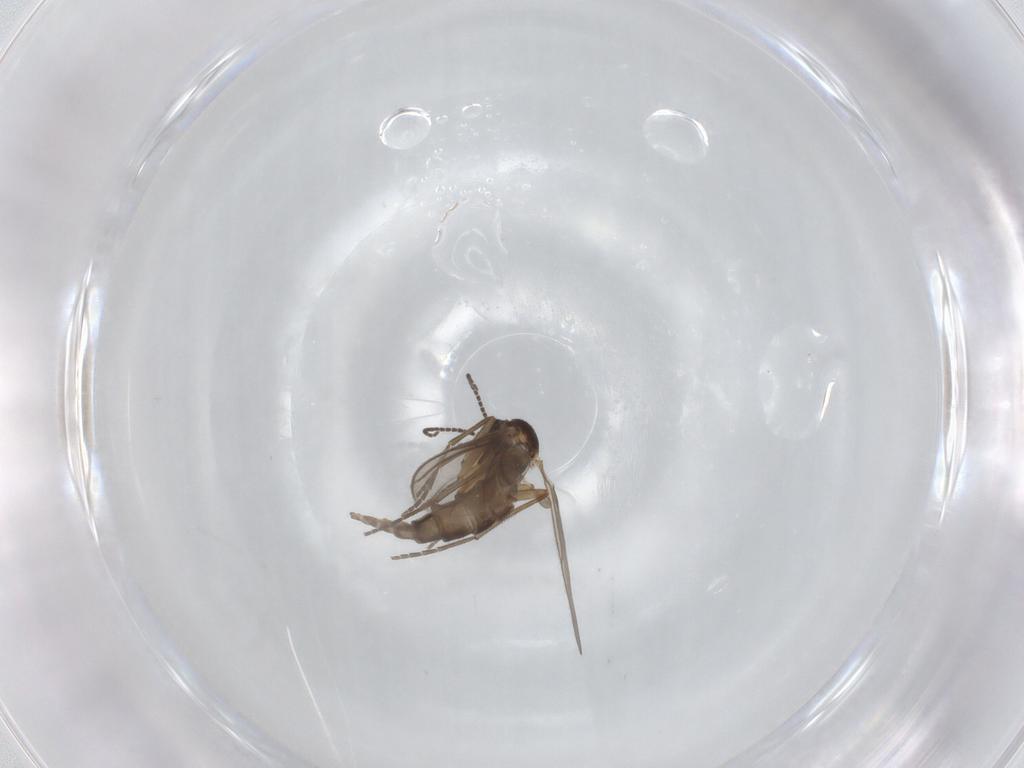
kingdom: Animalia
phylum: Arthropoda
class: Insecta
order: Diptera
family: Sciaridae
